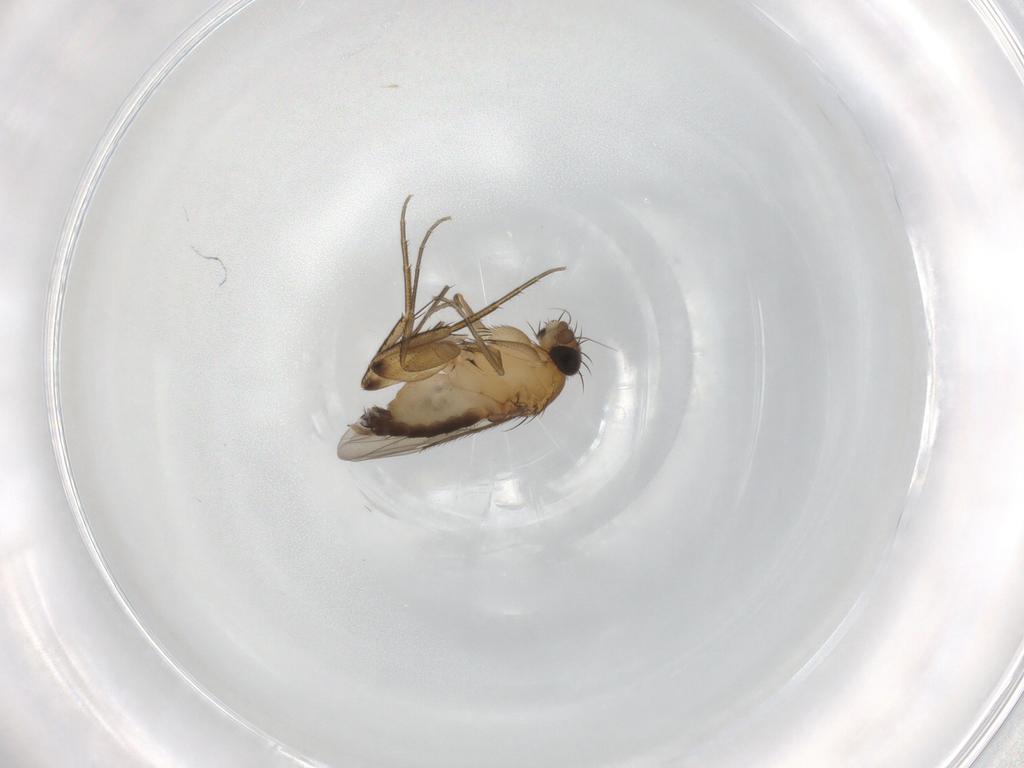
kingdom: Animalia
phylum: Arthropoda
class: Insecta
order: Diptera
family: Phoridae
